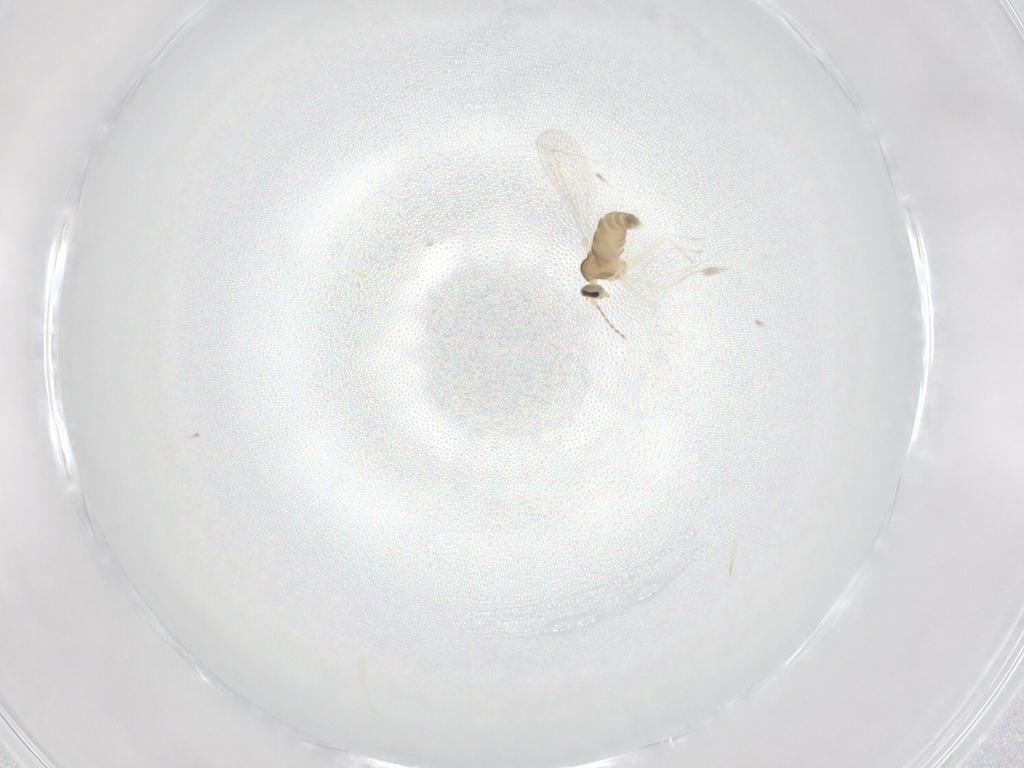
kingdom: Animalia
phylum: Arthropoda
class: Insecta
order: Diptera
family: Cecidomyiidae
